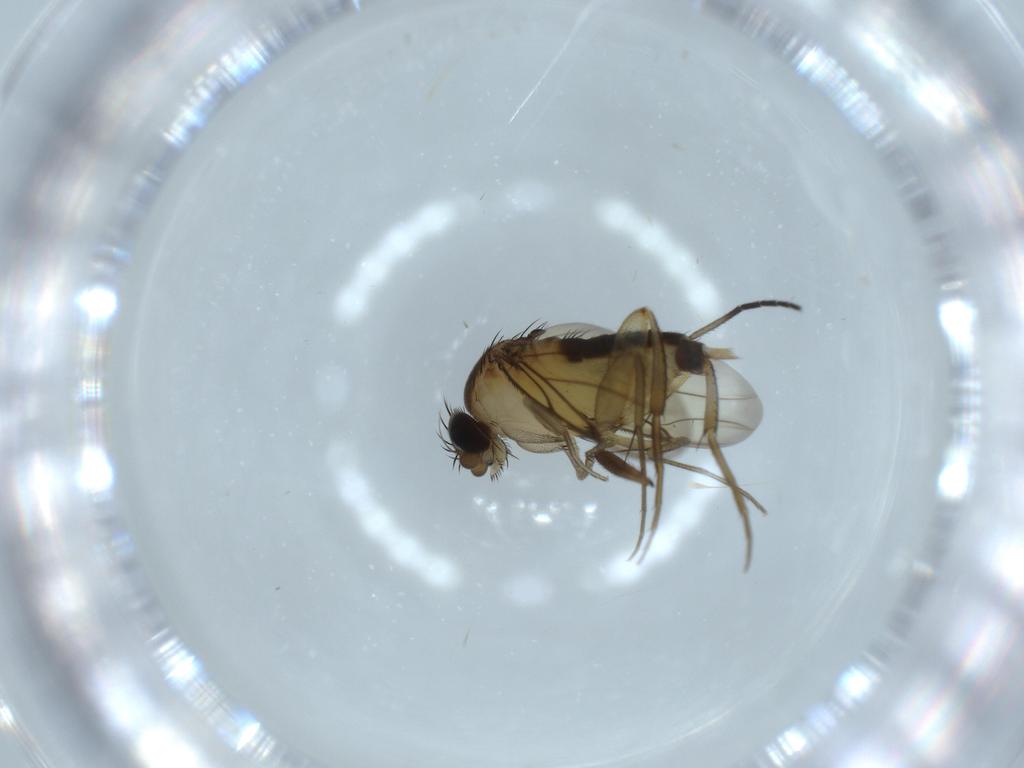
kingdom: Animalia
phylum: Arthropoda
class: Insecta
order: Diptera
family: Sciaridae
